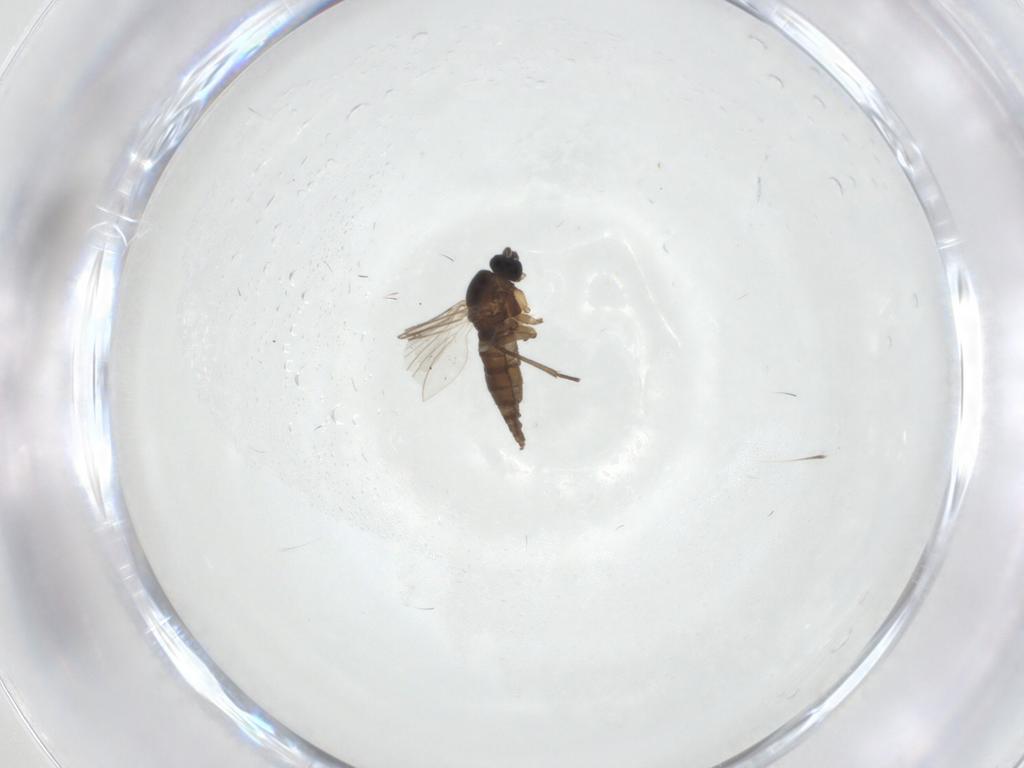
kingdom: Animalia
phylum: Arthropoda
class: Insecta
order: Diptera
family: Sciaridae
